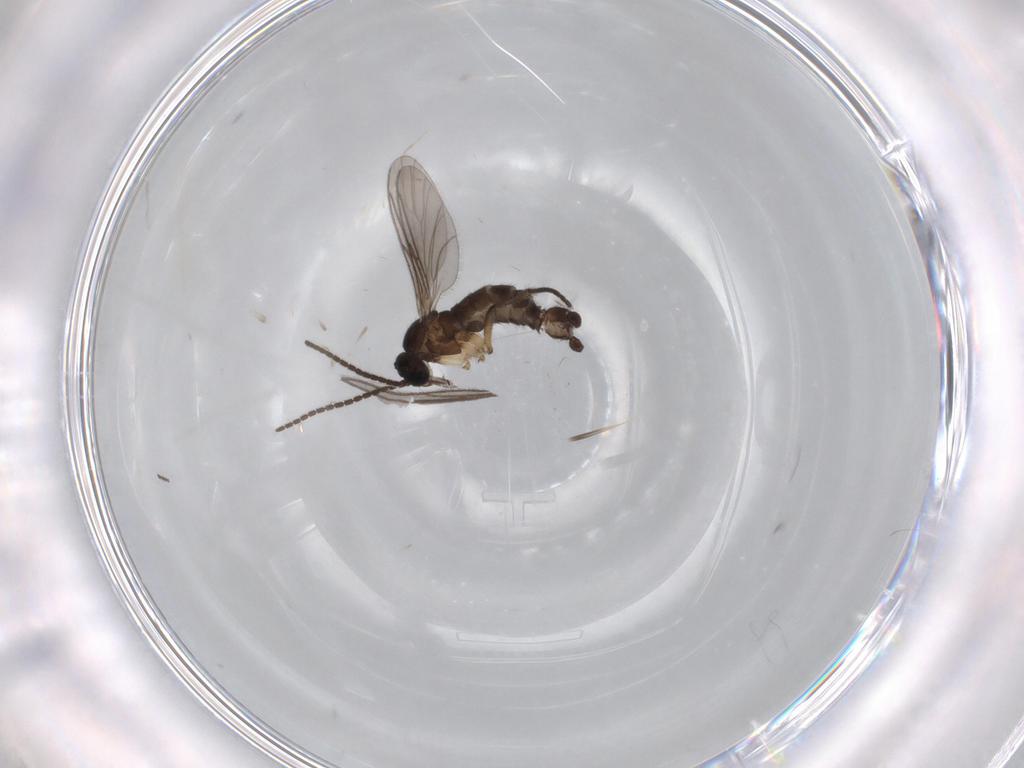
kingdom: Animalia
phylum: Arthropoda
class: Insecta
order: Diptera
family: Sciaridae
